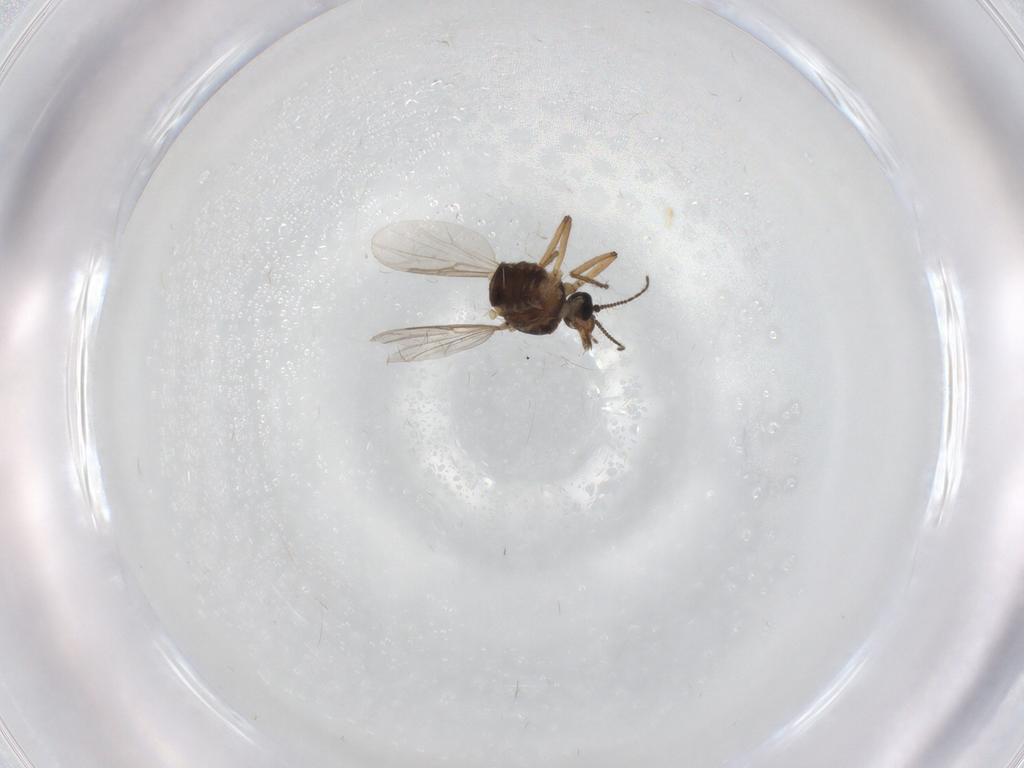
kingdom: Animalia
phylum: Arthropoda
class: Insecta
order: Diptera
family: Ceratopogonidae
